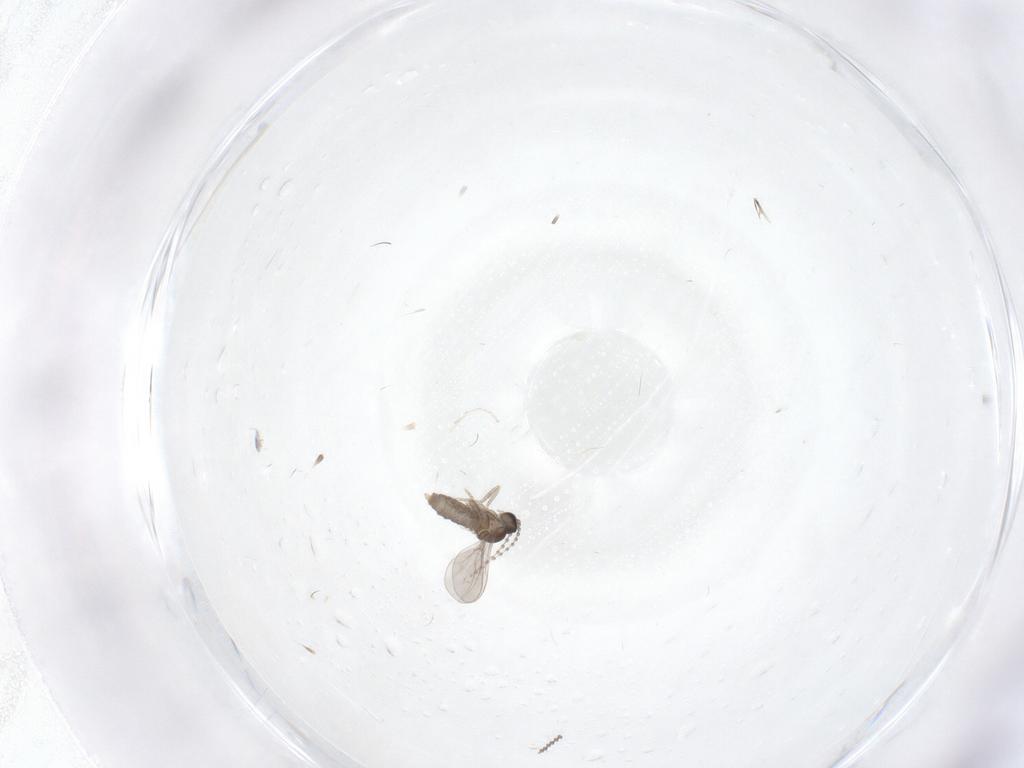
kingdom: Animalia
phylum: Arthropoda
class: Insecta
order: Diptera
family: Cecidomyiidae
